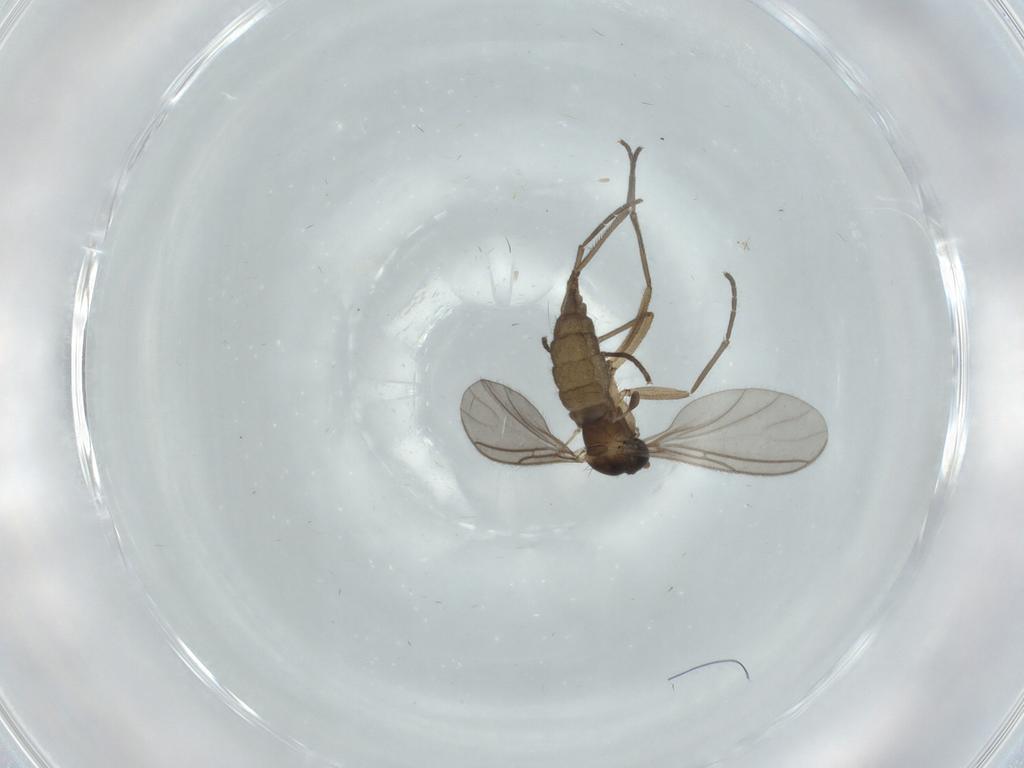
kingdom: Animalia
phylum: Arthropoda
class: Insecta
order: Diptera
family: Sciaridae
